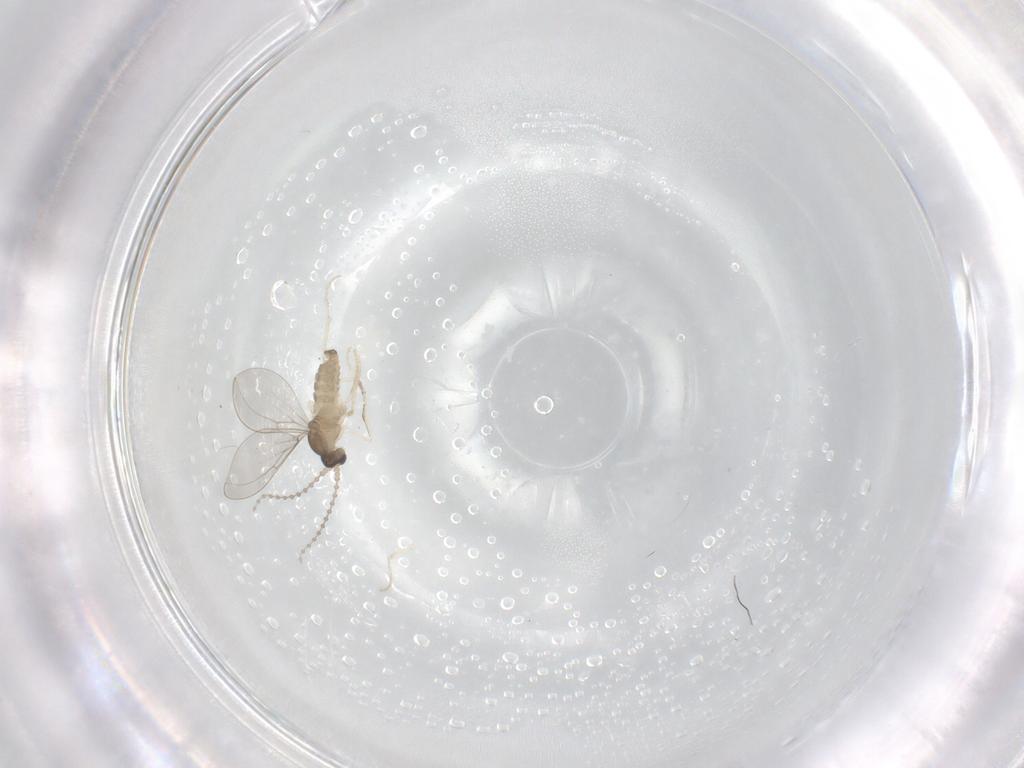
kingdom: Animalia
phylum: Arthropoda
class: Insecta
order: Diptera
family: Cecidomyiidae
